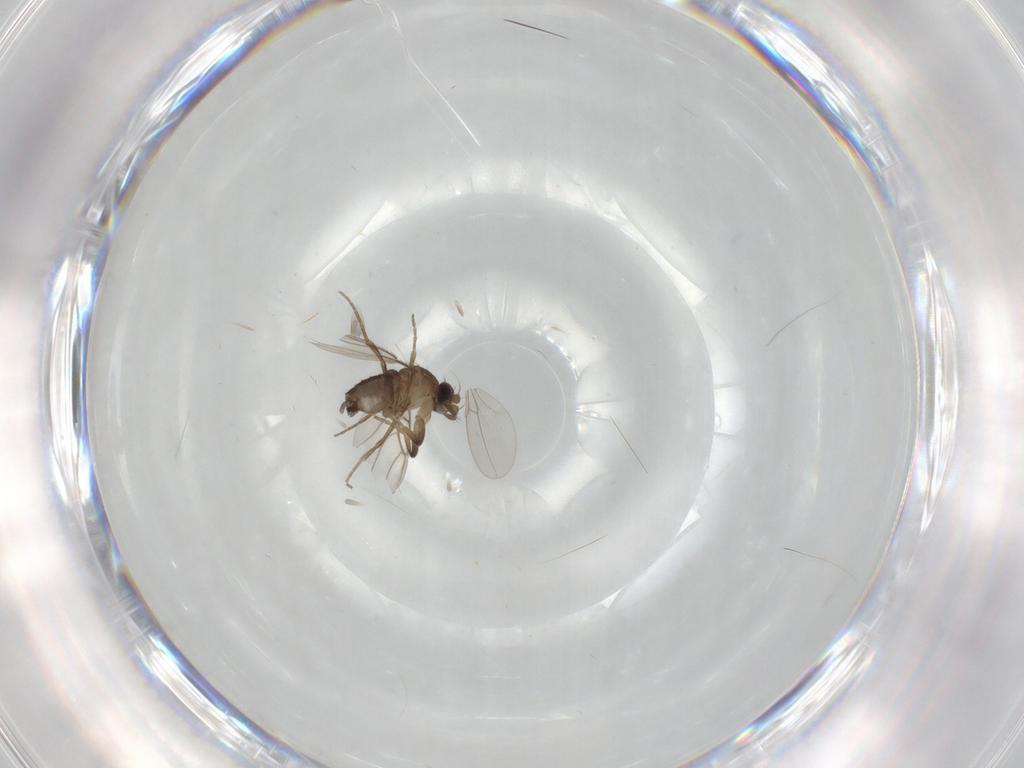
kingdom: Animalia
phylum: Arthropoda
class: Insecta
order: Diptera
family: Phoridae
